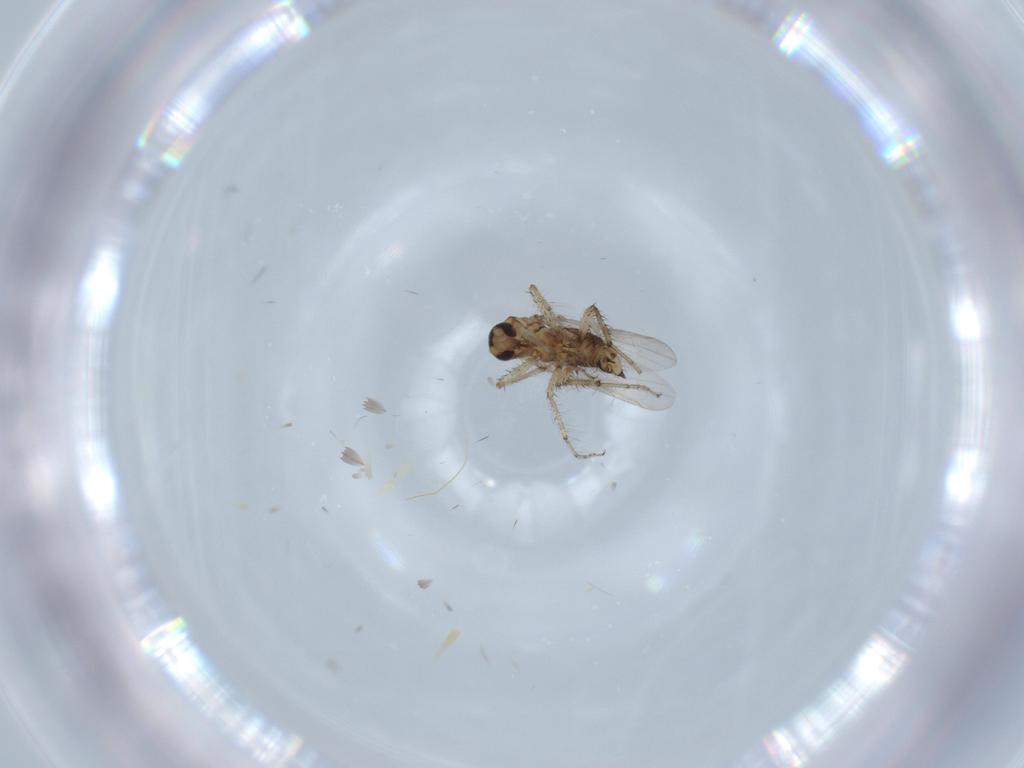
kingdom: Animalia
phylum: Arthropoda
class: Insecta
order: Diptera
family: Ceratopogonidae
